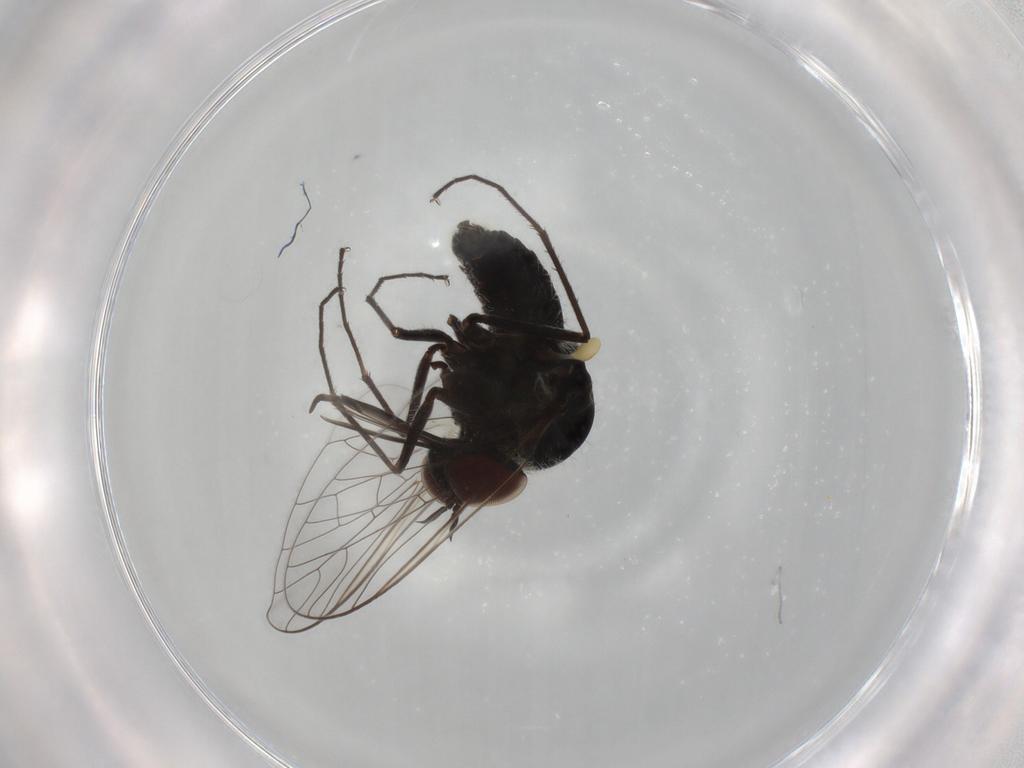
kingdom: Animalia
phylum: Arthropoda
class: Insecta
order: Diptera
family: Bombyliidae
